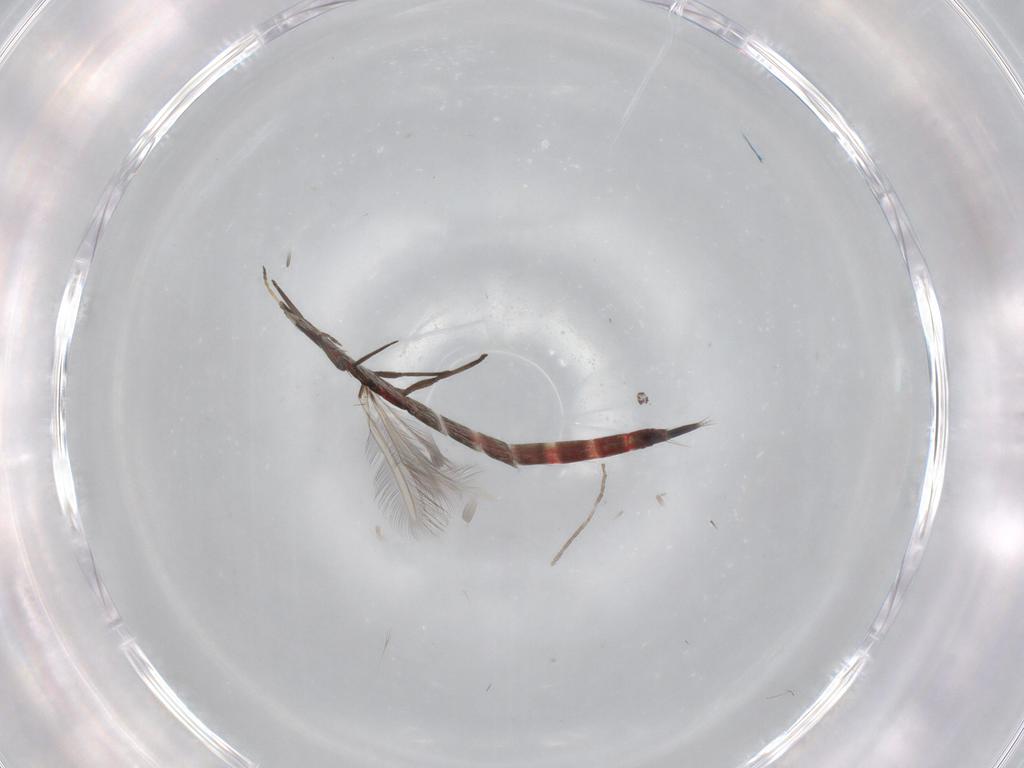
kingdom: Animalia
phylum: Arthropoda
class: Insecta
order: Thysanoptera
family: Phlaeothripidae
